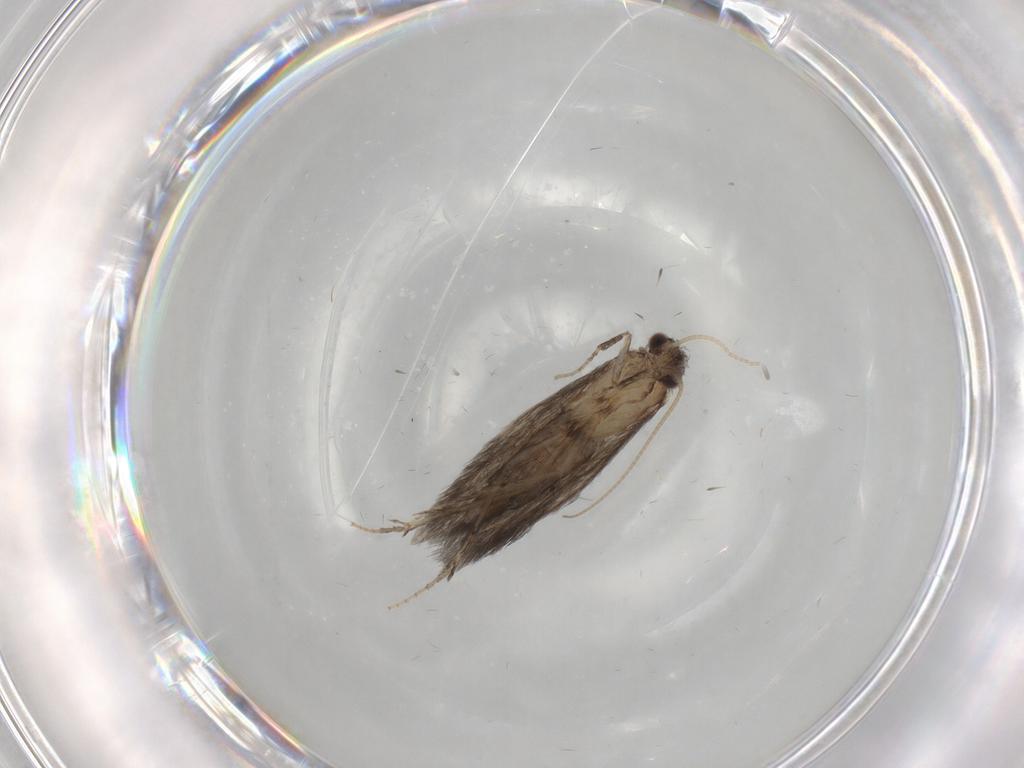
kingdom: Animalia
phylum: Arthropoda
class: Insecta
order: Trichoptera
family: Hydroptilidae
